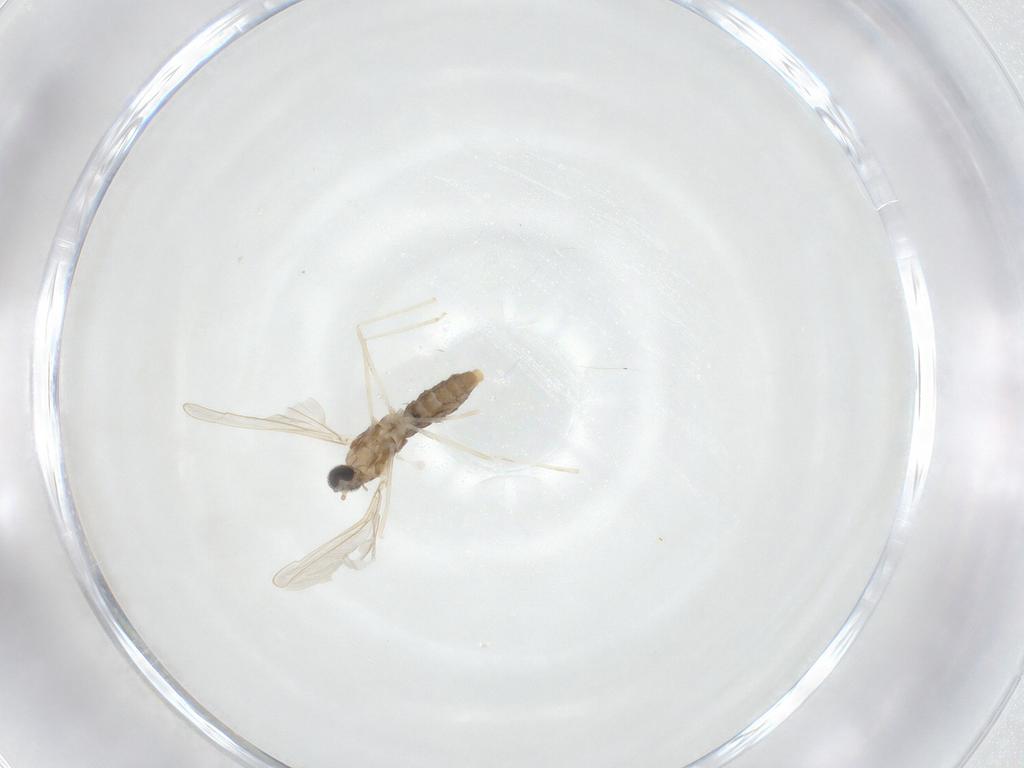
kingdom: Animalia
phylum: Arthropoda
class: Insecta
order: Diptera
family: Cecidomyiidae
